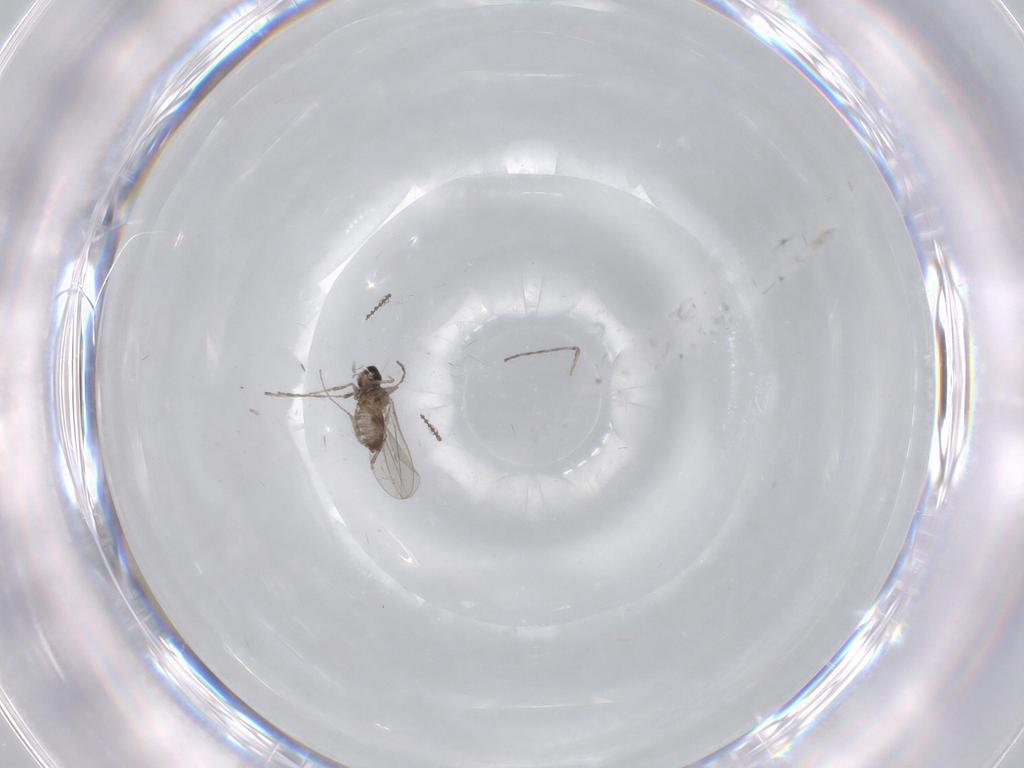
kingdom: Animalia
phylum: Arthropoda
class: Insecta
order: Diptera
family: Cecidomyiidae
